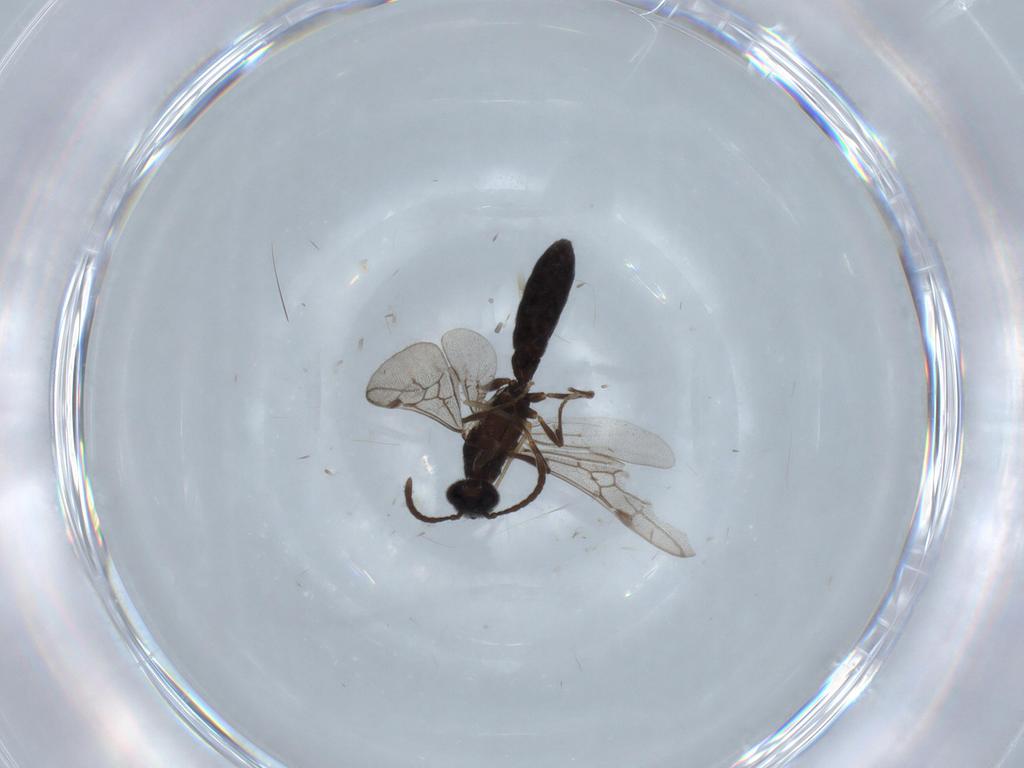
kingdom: Animalia
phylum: Arthropoda
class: Insecta
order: Hymenoptera
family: Formicidae
